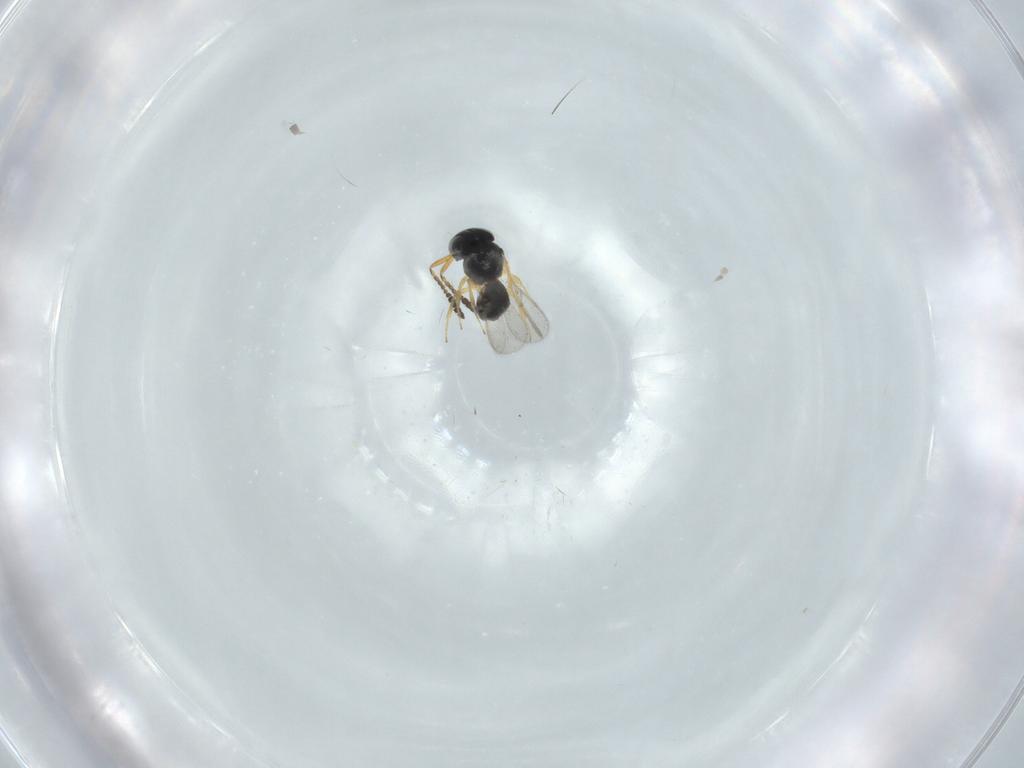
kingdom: Animalia
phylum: Arthropoda
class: Insecta
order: Hymenoptera
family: Scelionidae
